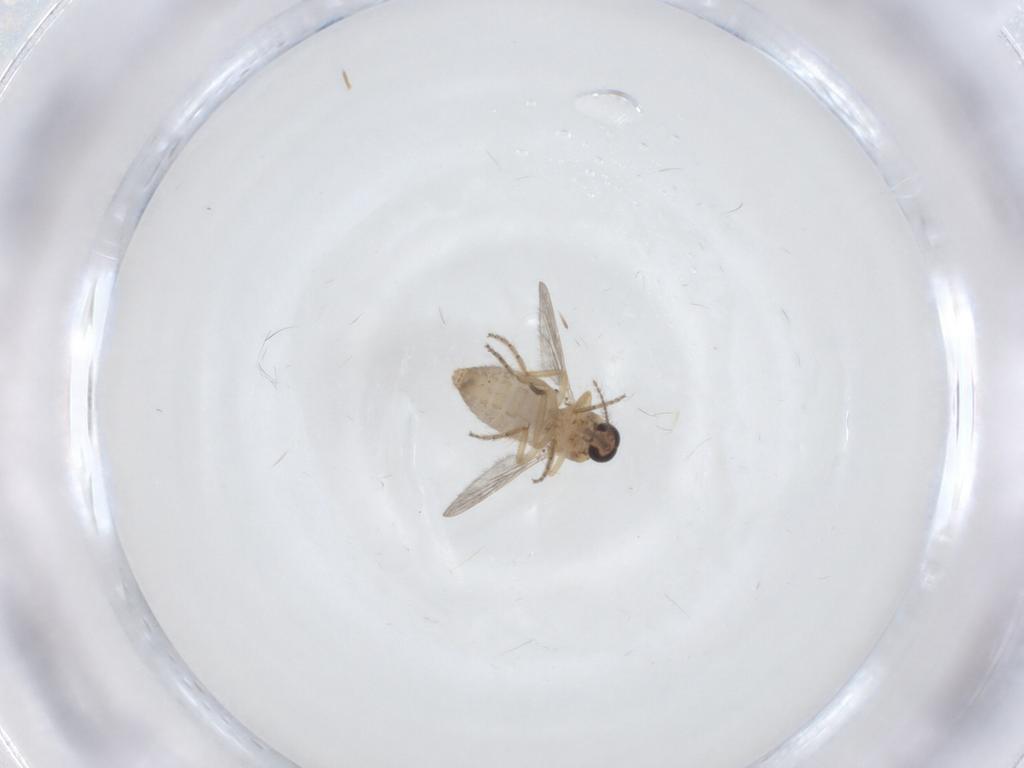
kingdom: Animalia
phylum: Arthropoda
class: Insecta
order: Diptera
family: Ceratopogonidae
